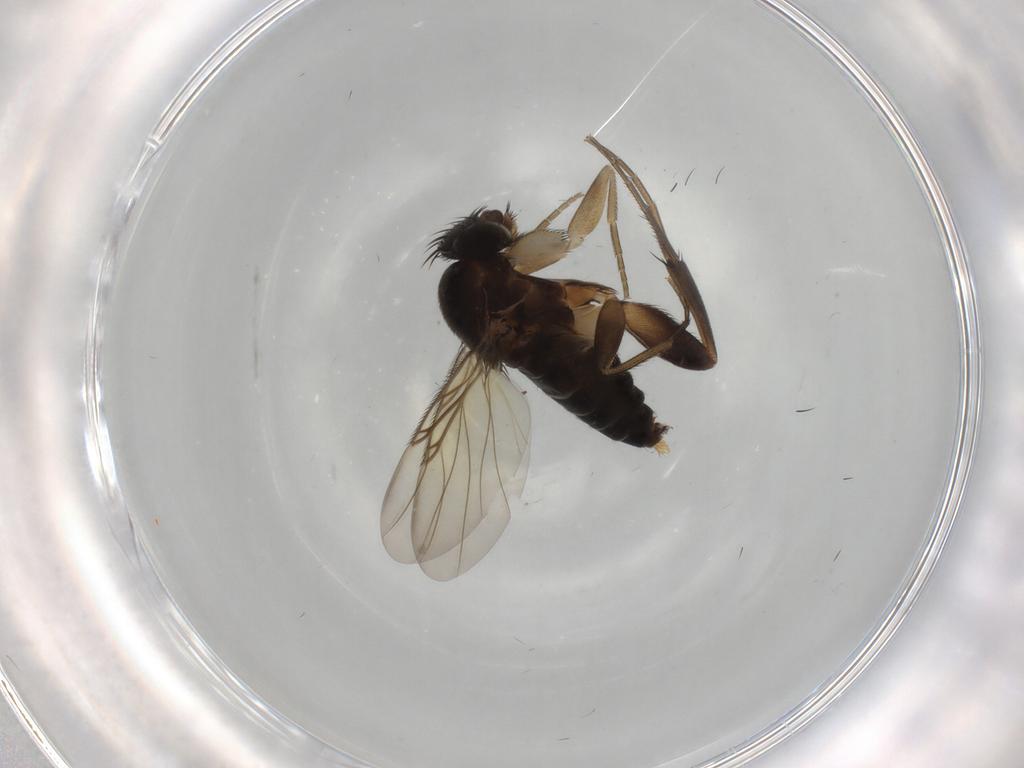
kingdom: Animalia
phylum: Arthropoda
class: Insecta
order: Diptera
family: Phoridae
